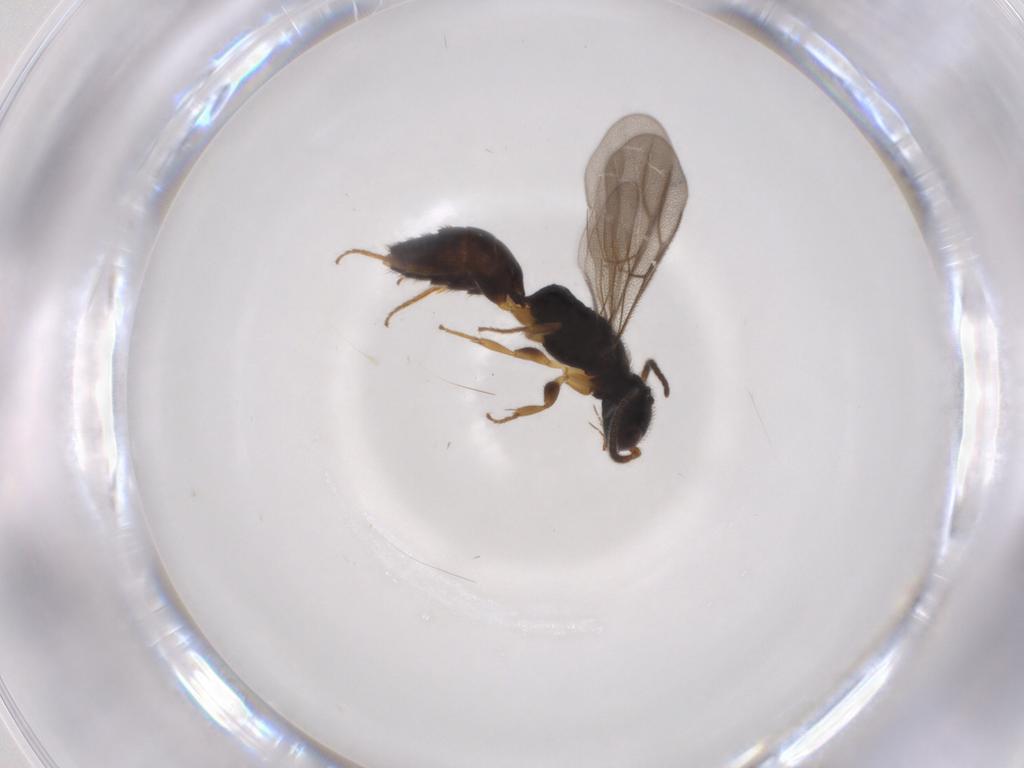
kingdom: Animalia
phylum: Arthropoda
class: Insecta
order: Hymenoptera
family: Bethylidae
